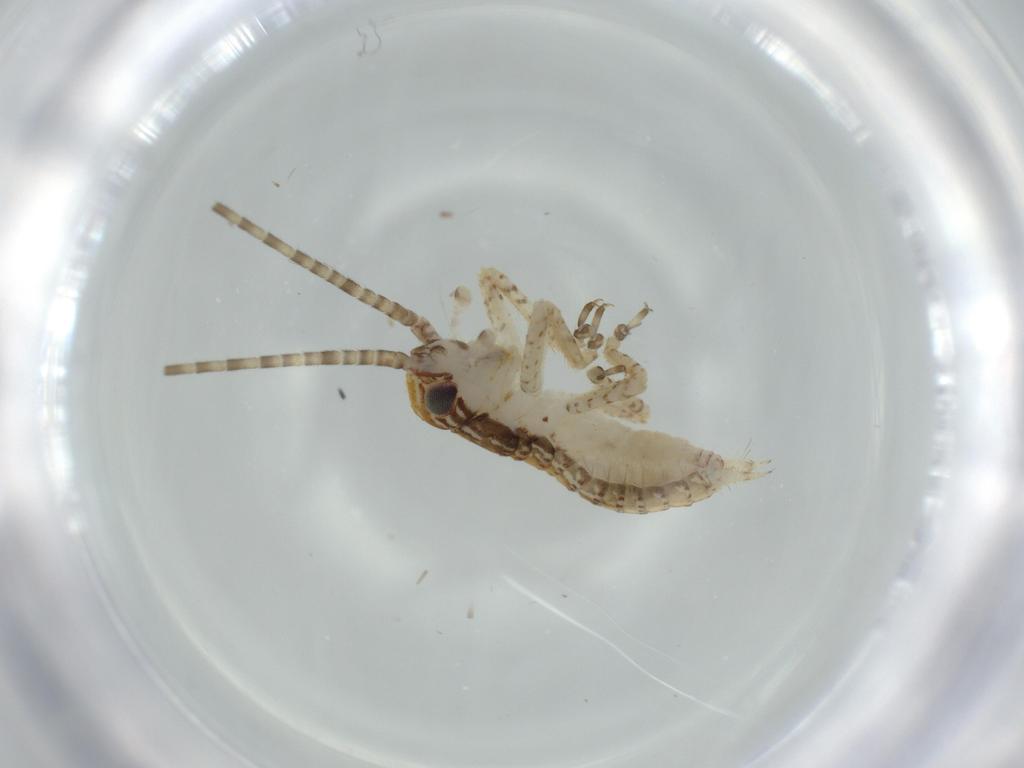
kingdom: Animalia
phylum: Arthropoda
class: Insecta
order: Orthoptera
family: Gryllidae
